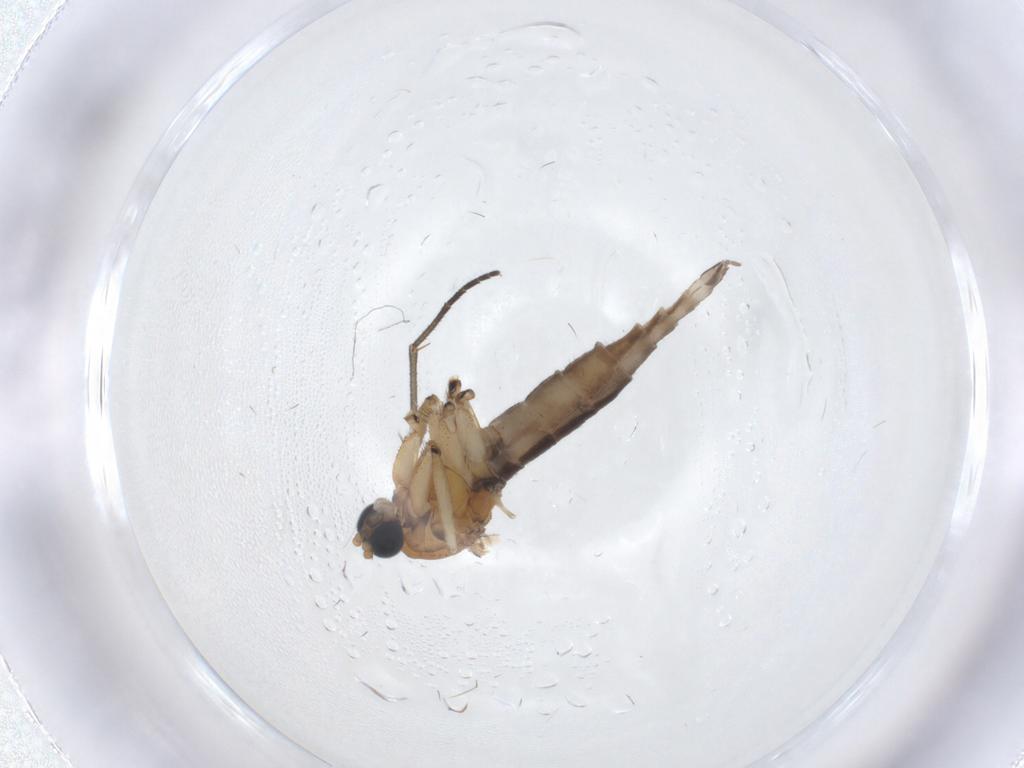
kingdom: Animalia
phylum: Arthropoda
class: Insecta
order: Diptera
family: Sciaridae
